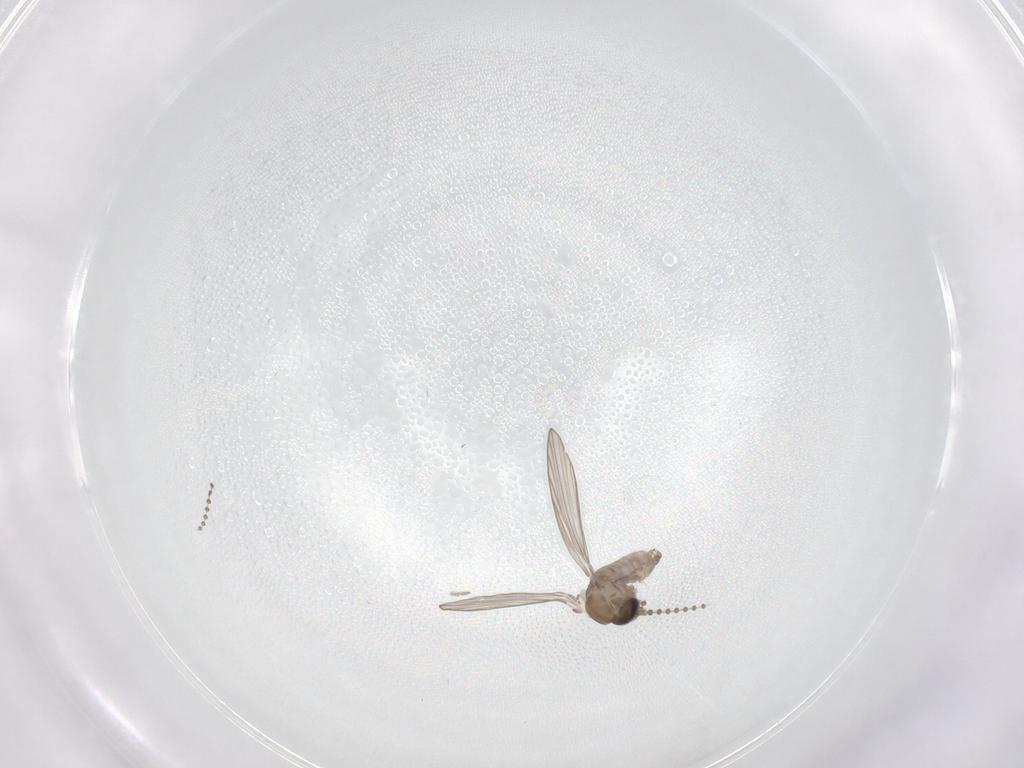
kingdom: Animalia
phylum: Arthropoda
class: Insecta
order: Diptera
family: Psychodidae
